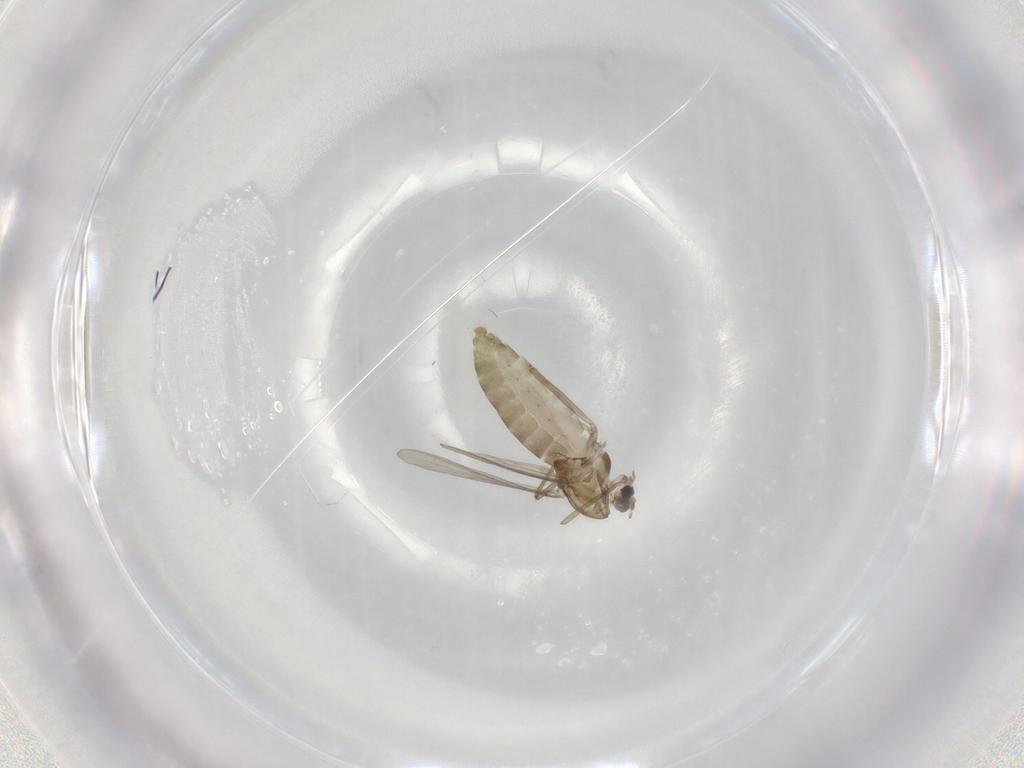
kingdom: Animalia
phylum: Arthropoda
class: Insecta
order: Diptera
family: Chironomidae
